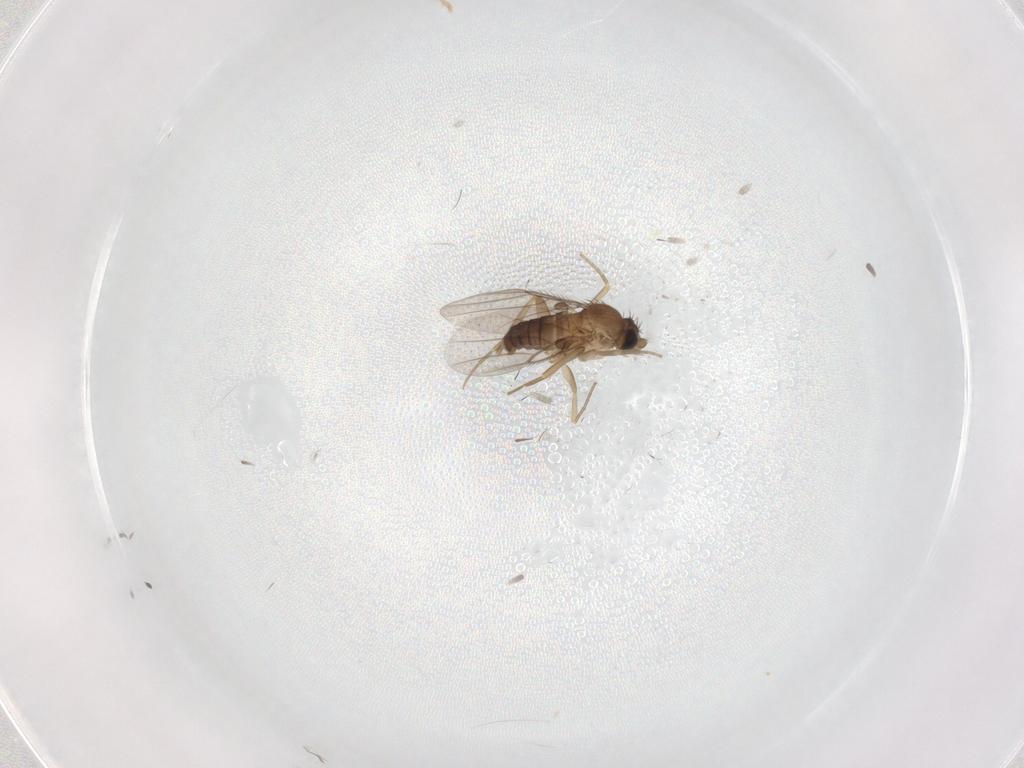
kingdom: Animalia
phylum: Arthropoda
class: Insecta
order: Diptera
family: Phoridae
